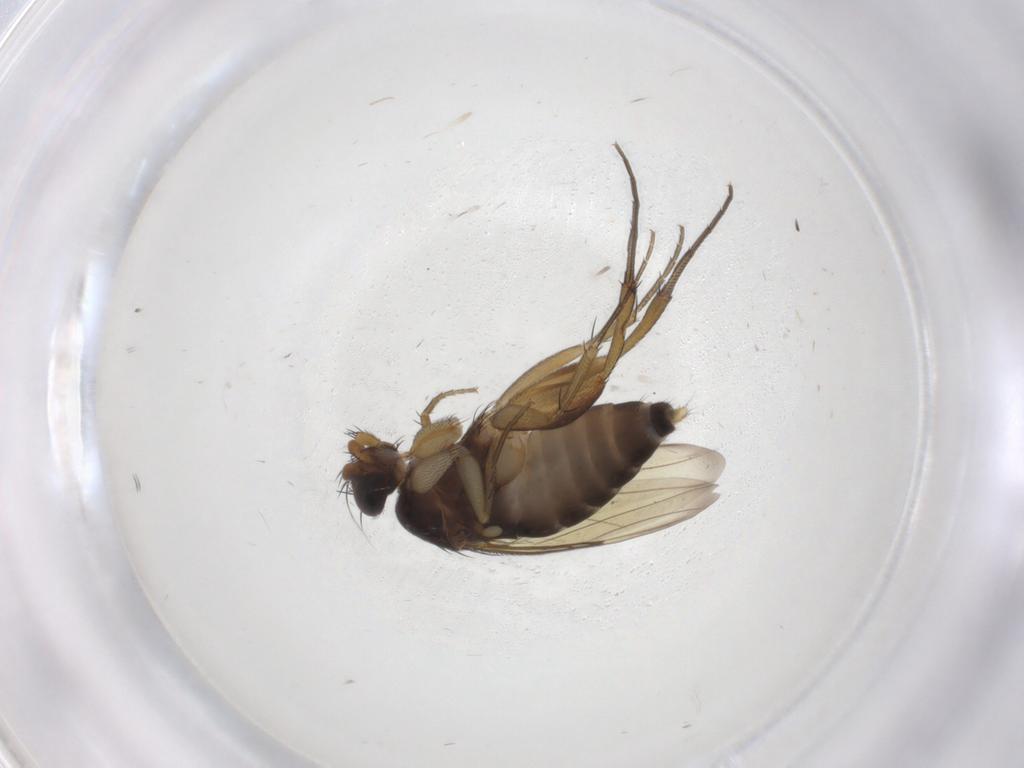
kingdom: Animalia
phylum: Arthropoda
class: Insecta
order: Diptera
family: Phoridae
